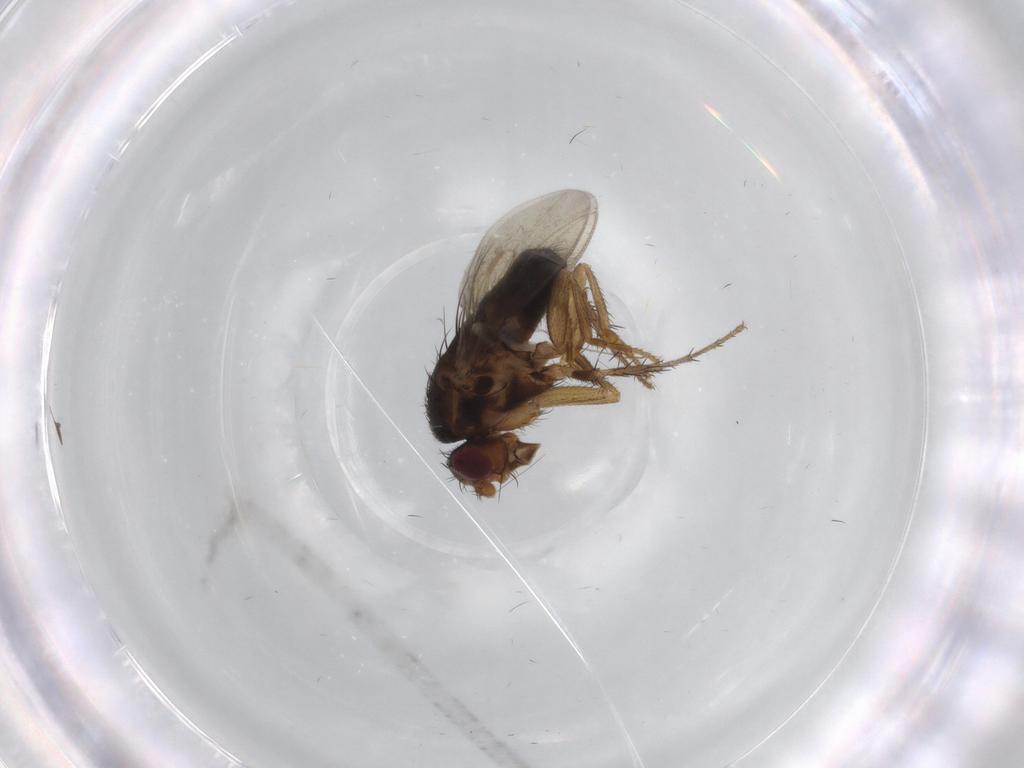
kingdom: Animalia
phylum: Arthropoda
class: Insecta
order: Diptera
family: Sphaeroceridae
